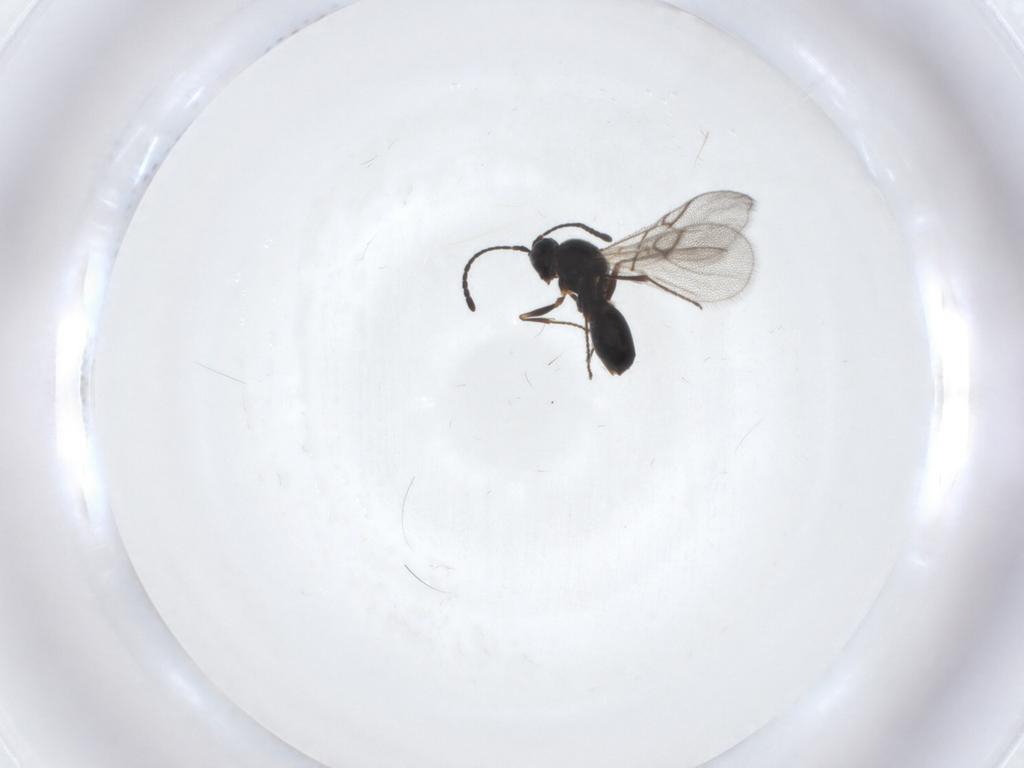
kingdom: Animalia
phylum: Arthropoda
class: Insecta
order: Hymenoptera
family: Figitidae
